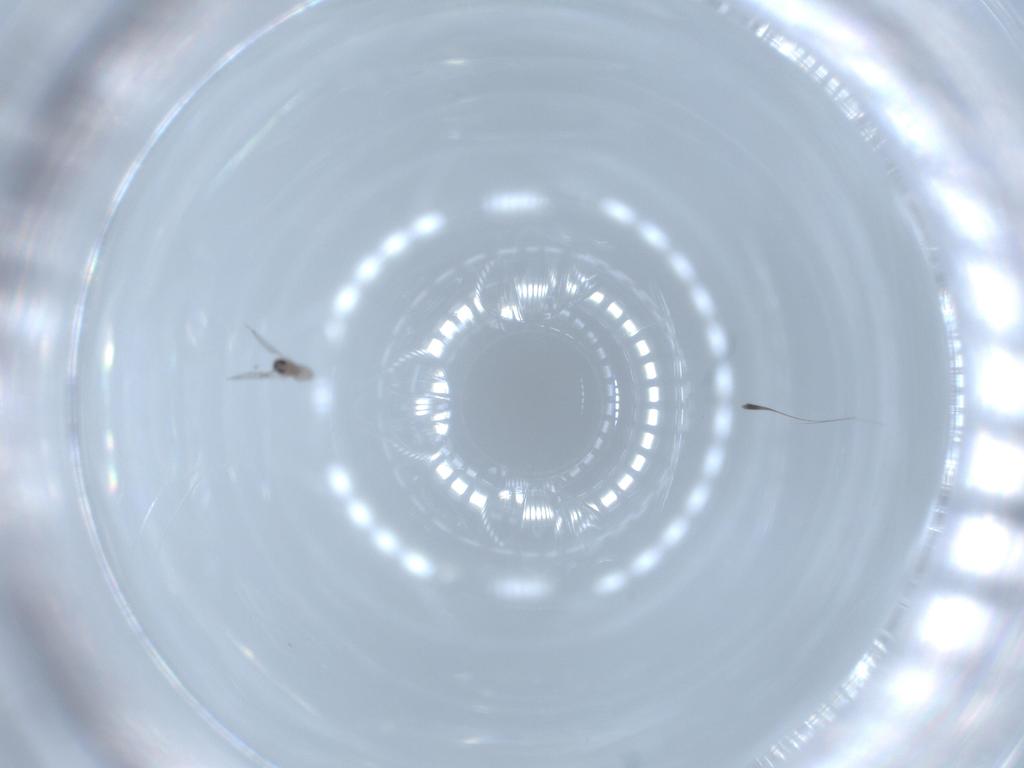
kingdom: Animalia
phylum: Arthropoda
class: Insecta
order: Diptera
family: Cecidomyiidae
